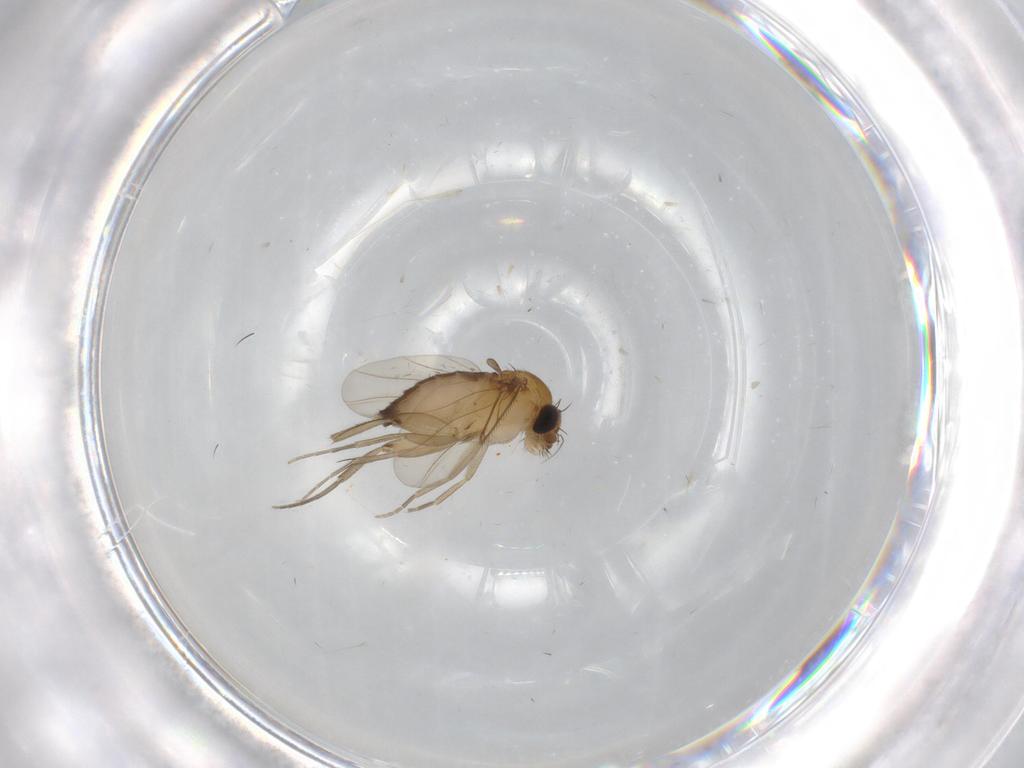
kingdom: Animalia
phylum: Arthropoda
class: Insecta
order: Diptera
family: Phoridae
